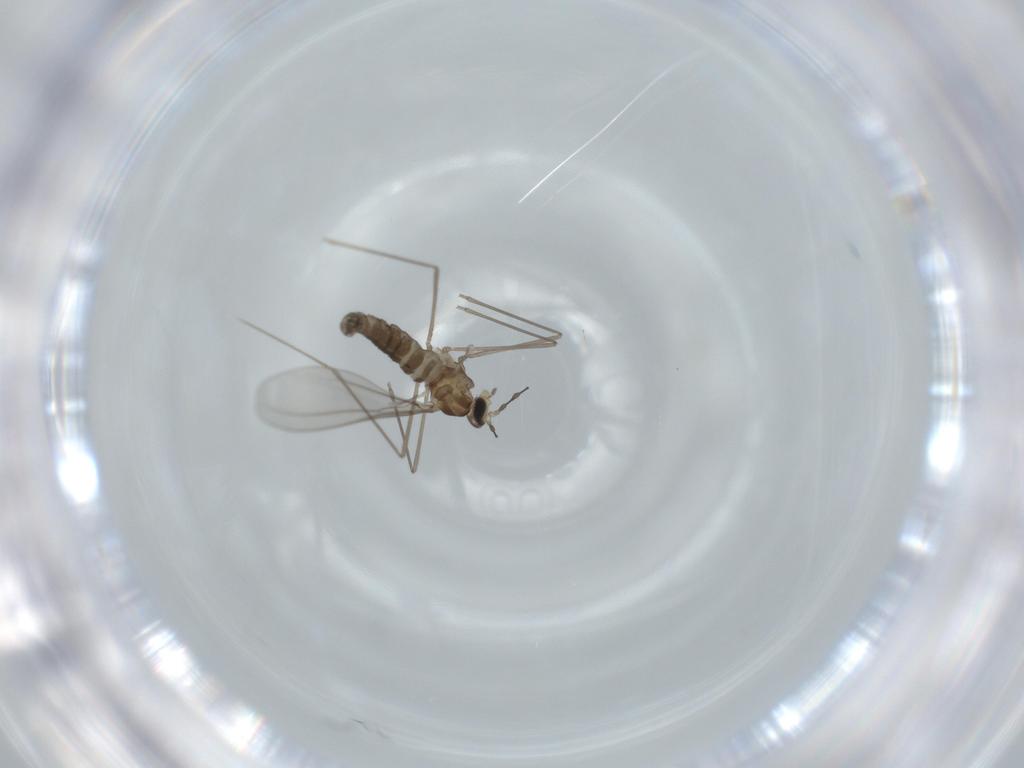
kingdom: Animalia
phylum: Arthropoda
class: Insecta
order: Diptera
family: Cecidomyiidae
